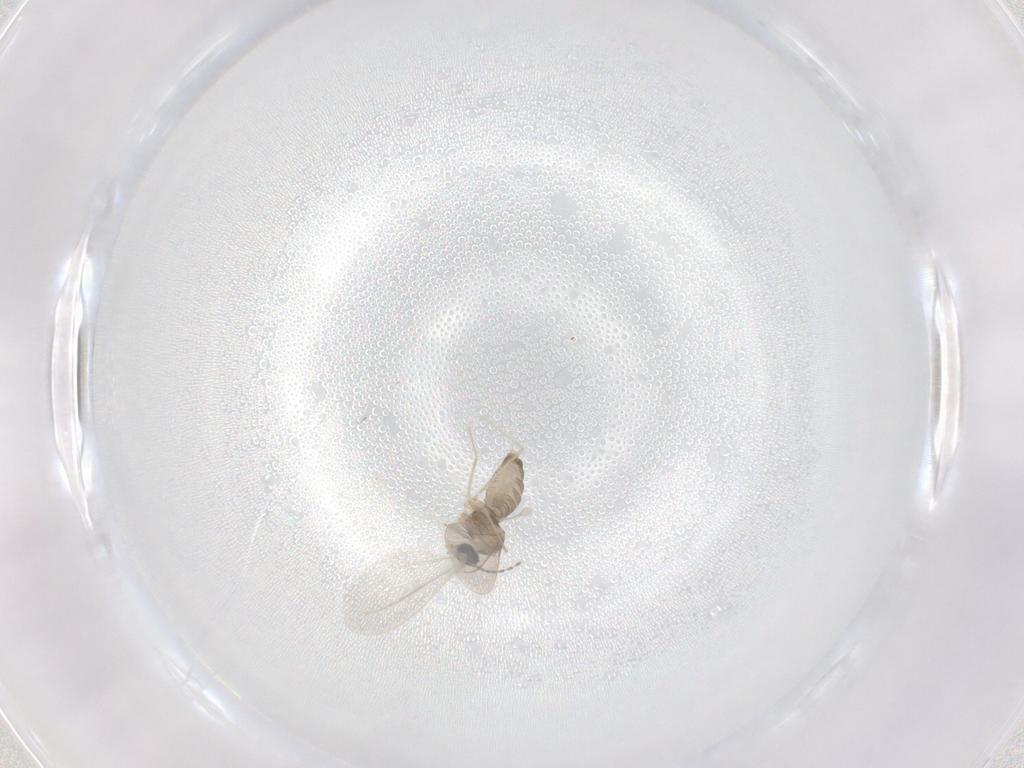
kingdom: Animalia
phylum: Arthropoda
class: Insecta
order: Diptera
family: Cecidomyiidae
